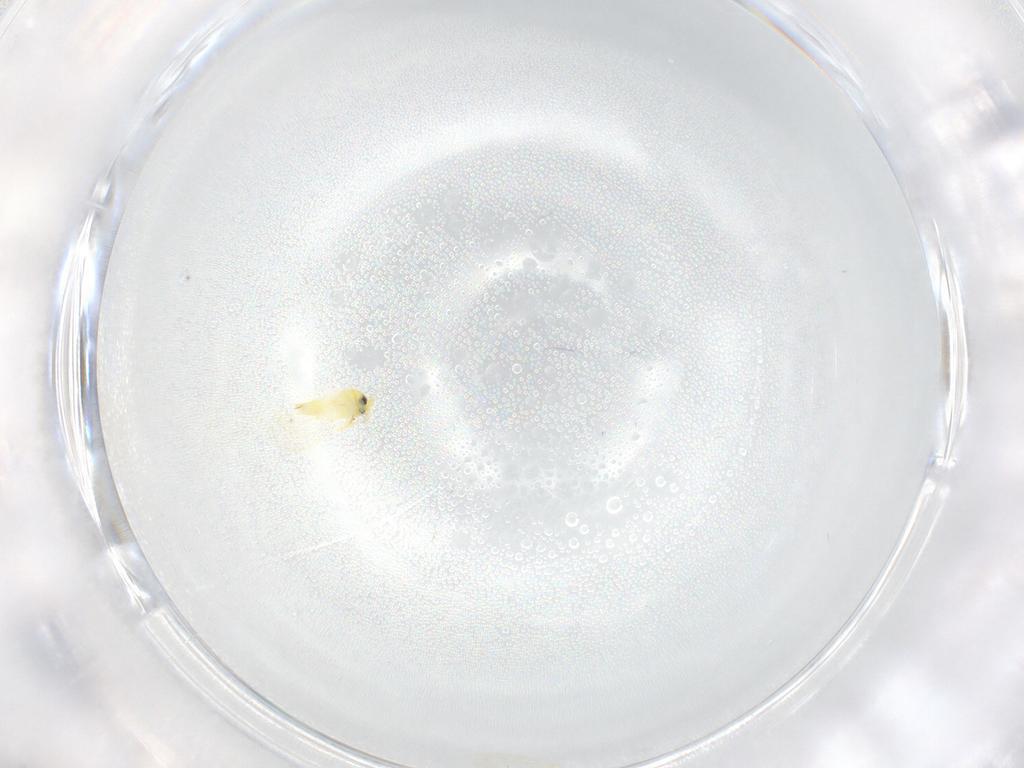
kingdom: Animalia
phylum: Arthropoda
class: Insecta
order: Hemiptera
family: Aleyrodidae
